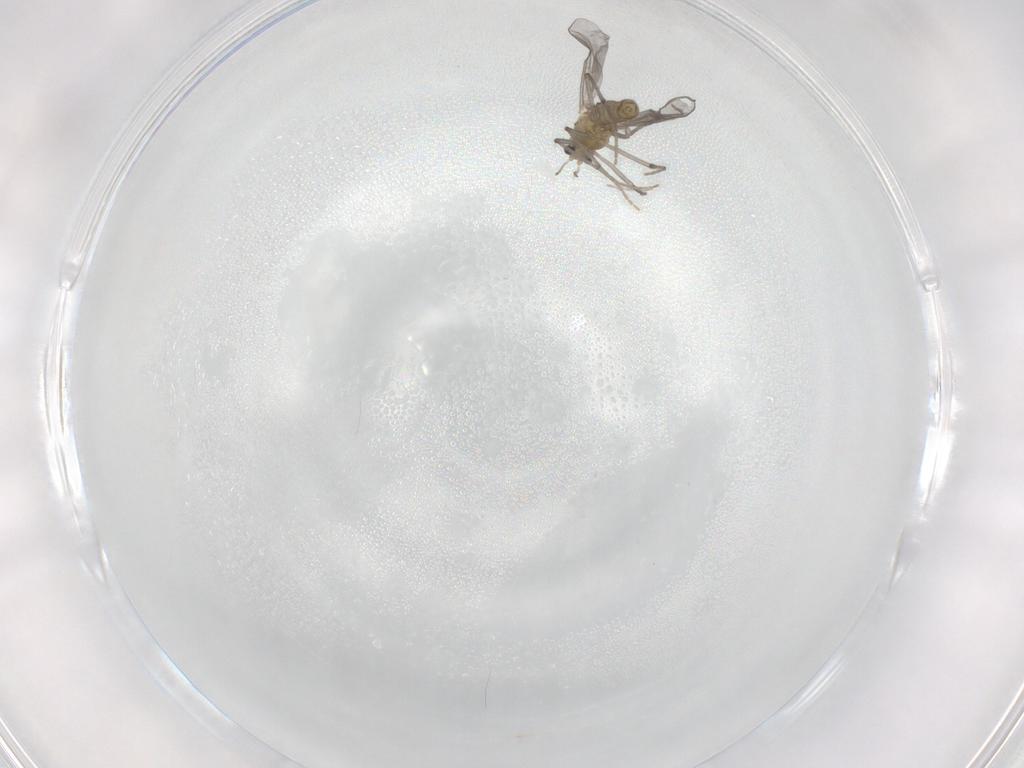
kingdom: Animalia
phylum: Arthropoda
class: Insecta
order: Diptera
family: Chironomidae
